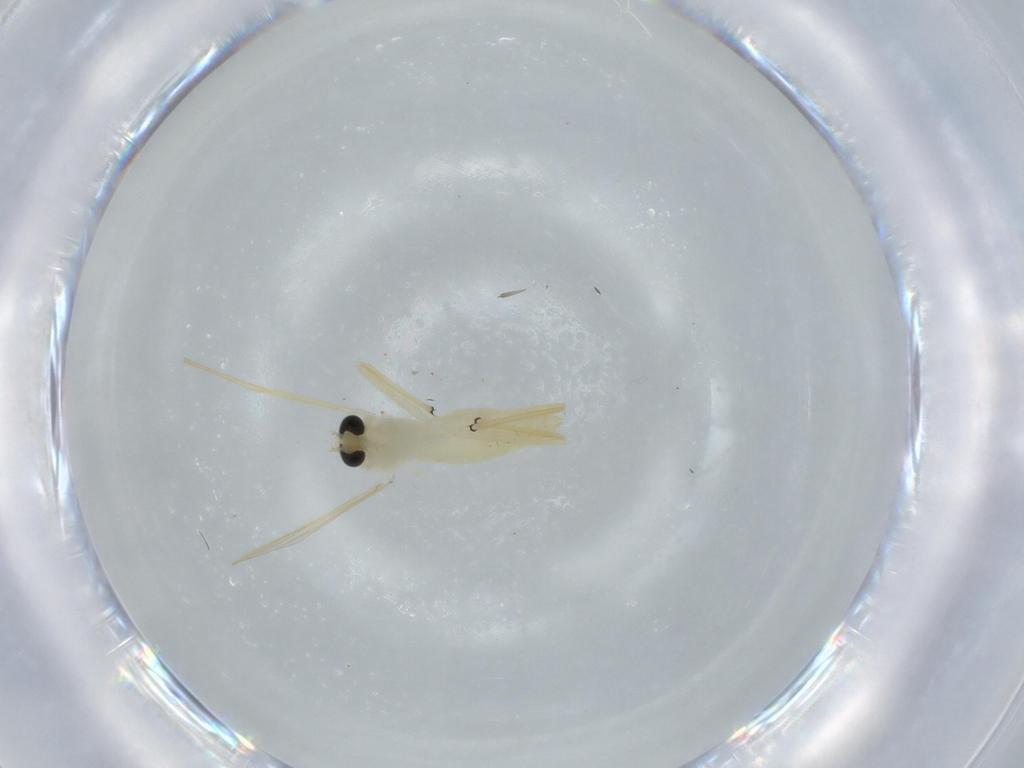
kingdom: Animalia
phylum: Arthropoda
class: Insecta
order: Diptera
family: Chironomidae
